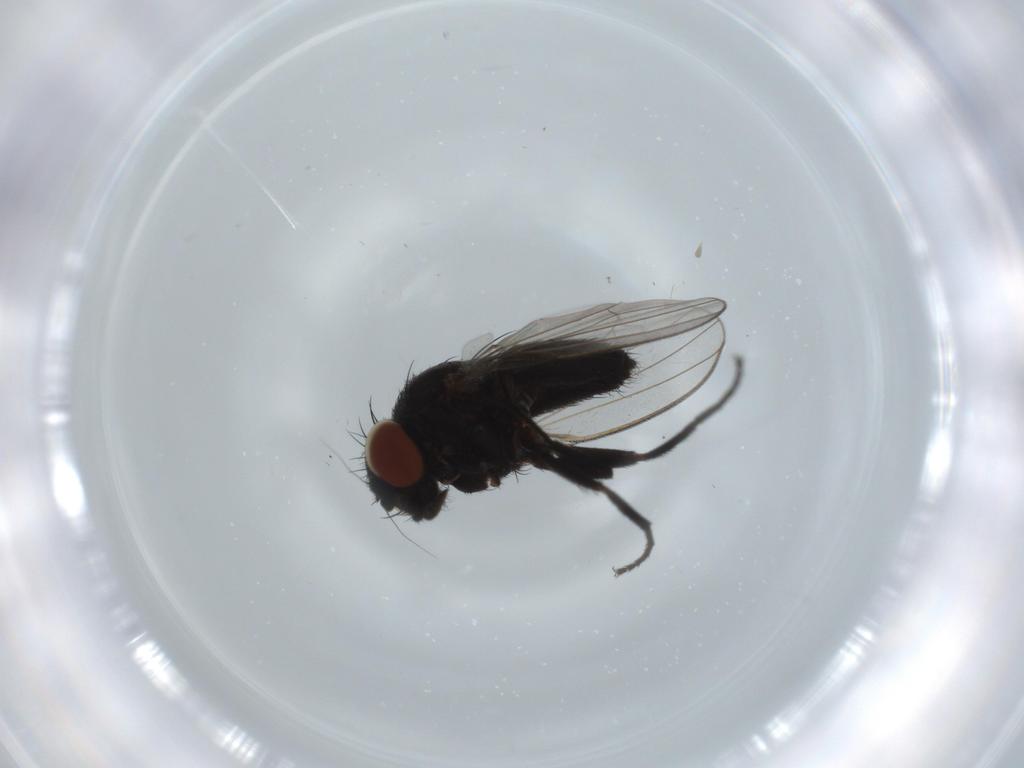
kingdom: Animalia
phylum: Arthropoda
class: Insecta
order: Diptera
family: Milichiidae
